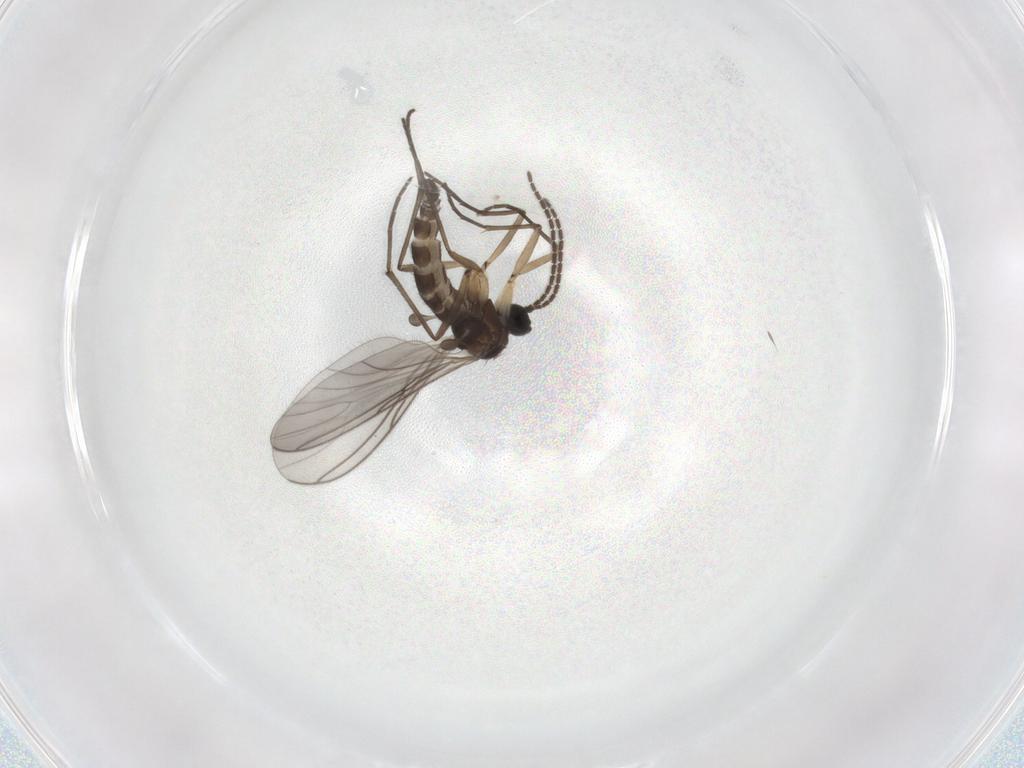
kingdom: Animalia
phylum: Arthropoda
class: Insecta
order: Diptera
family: Sciaridae
